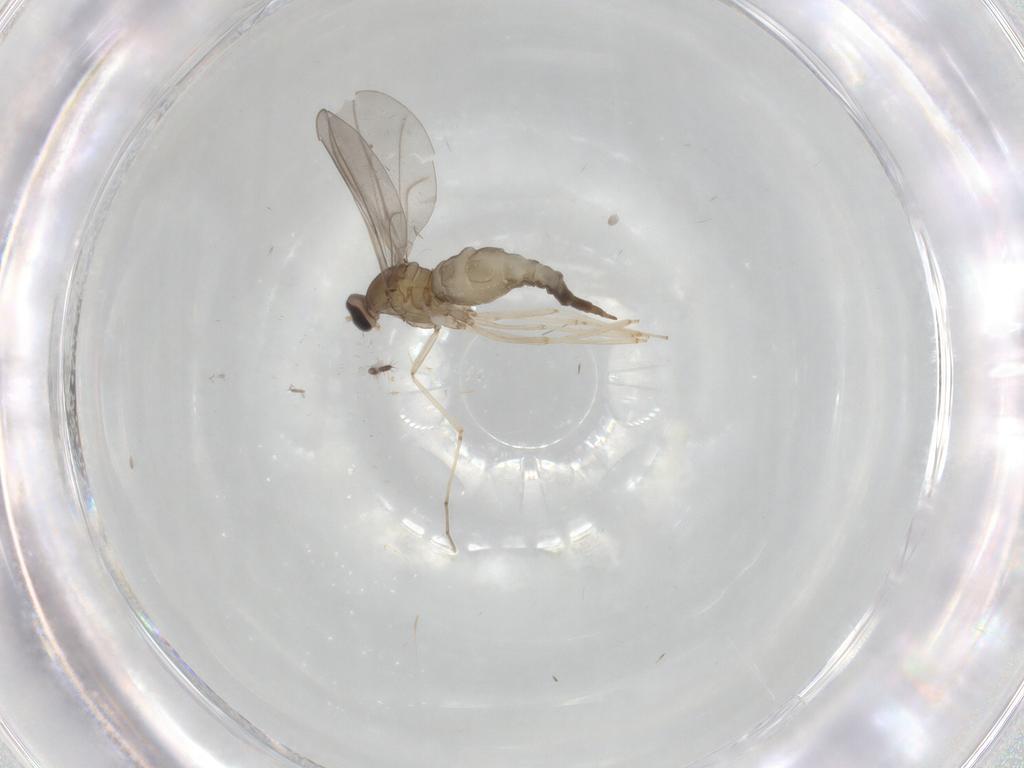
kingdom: Animalia
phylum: Arthropoda
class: Insecta
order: Diptera
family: Cecidomyiidae
